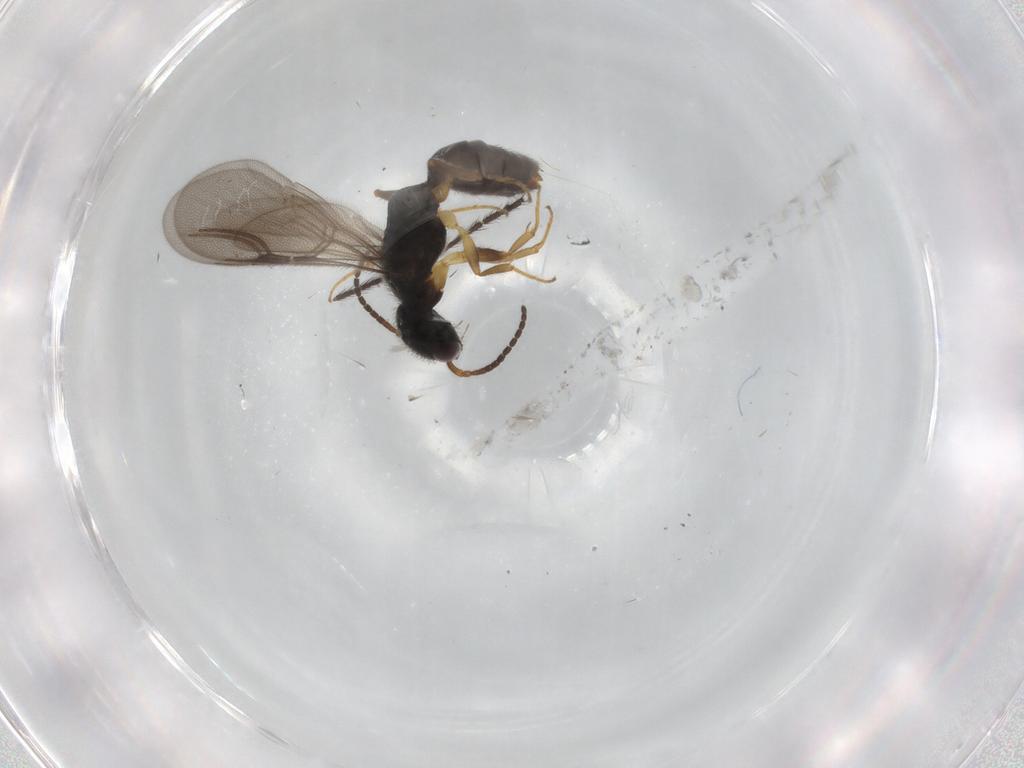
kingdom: Animalia
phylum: Arthropoda
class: Insecta
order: Hymenoptera
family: Bethylidae
